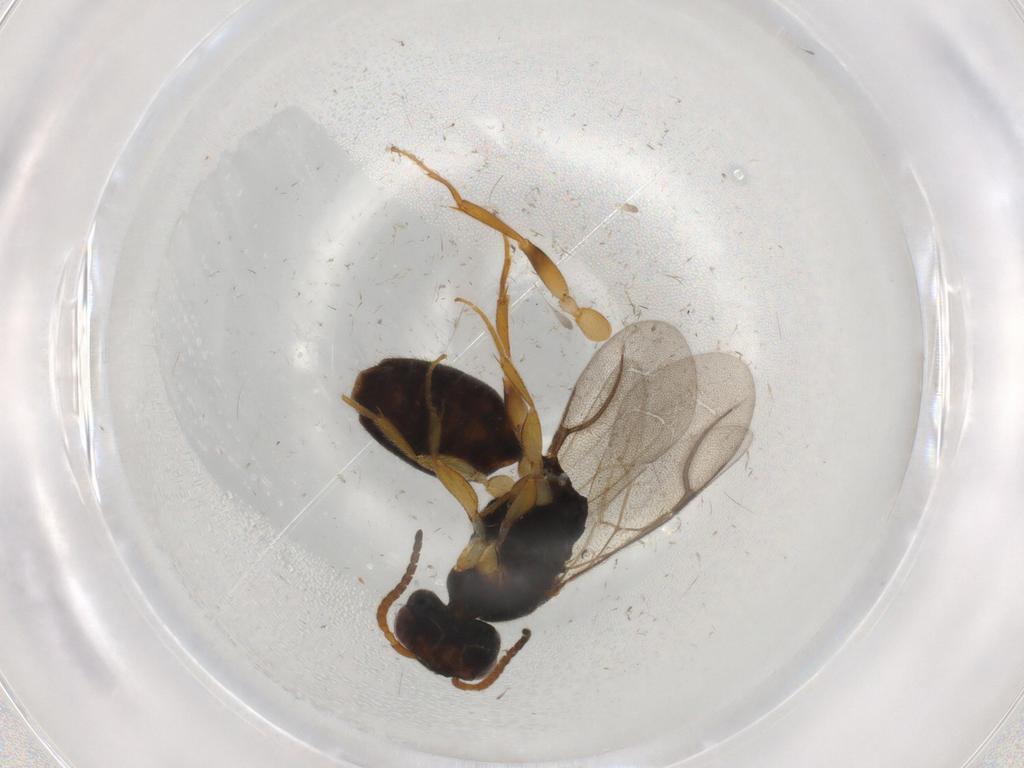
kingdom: Animalia
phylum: Arthropoda
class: Insecta
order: Hymenoptera
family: Bethylidae
